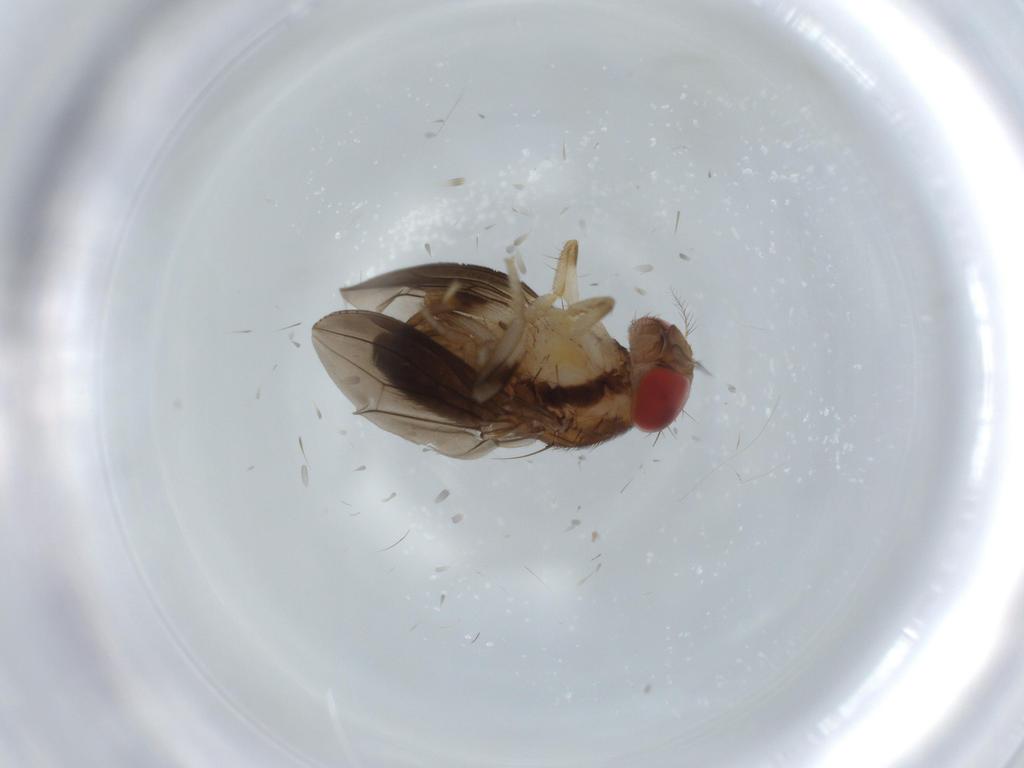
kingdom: Animalia
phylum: Arthropoda
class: Insecta
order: Diptera
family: Drosophilidae
